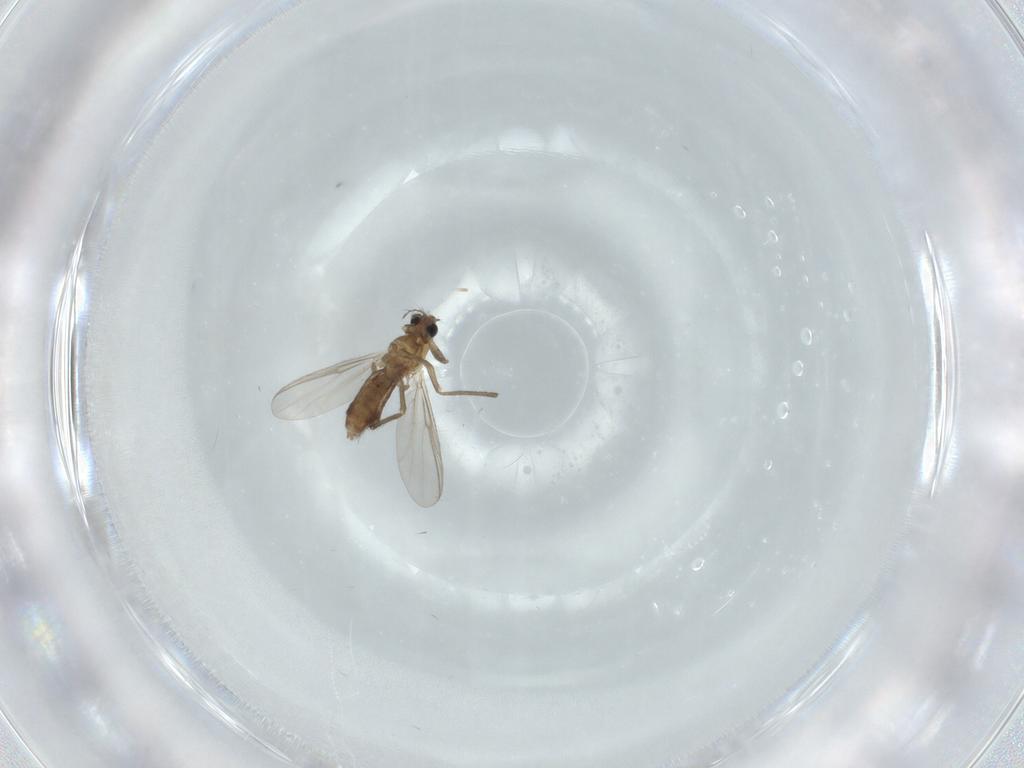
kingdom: Animalia
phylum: Arthropoda
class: Insecta
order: Diptera
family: Chironomidae
